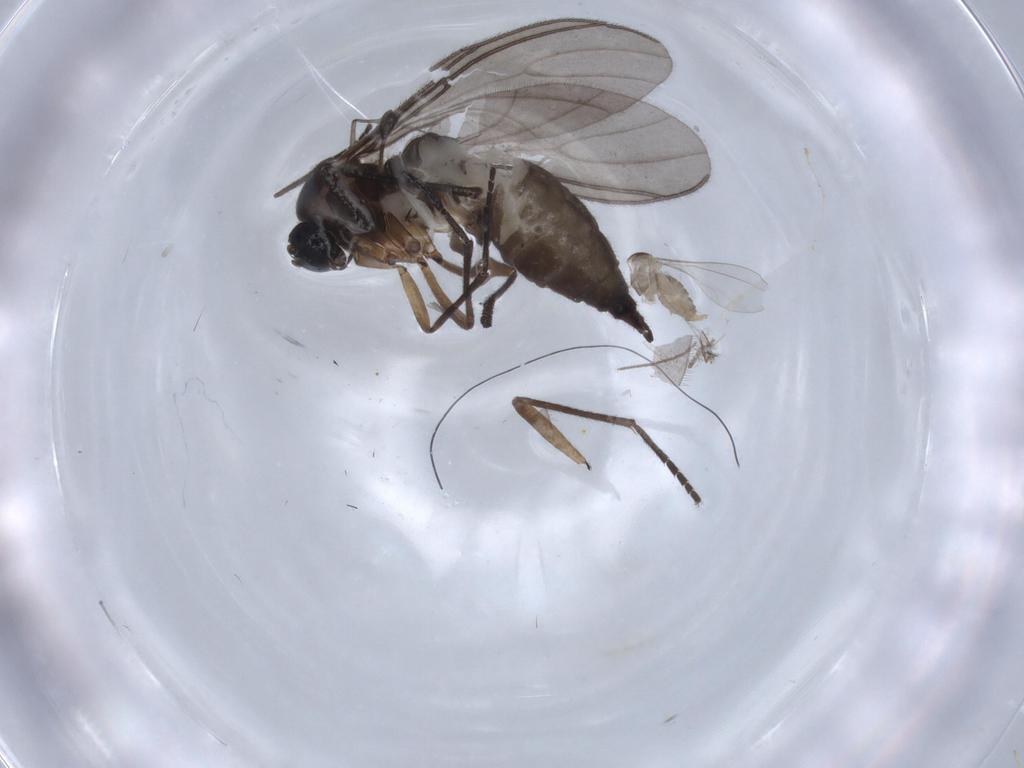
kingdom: Animalia
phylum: Arthropoda
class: Insecta
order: Diptera
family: Cecidomyiidae
